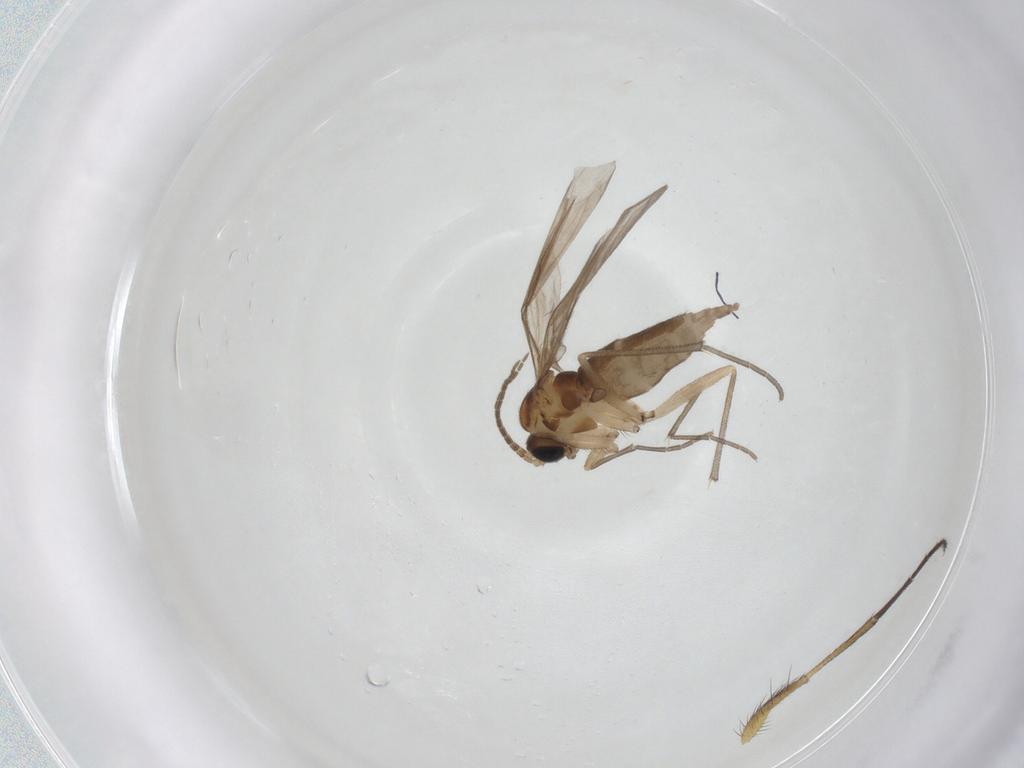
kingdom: Animalia
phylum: Arthropoda
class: Insecta
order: Diptera
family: Sciaridae
